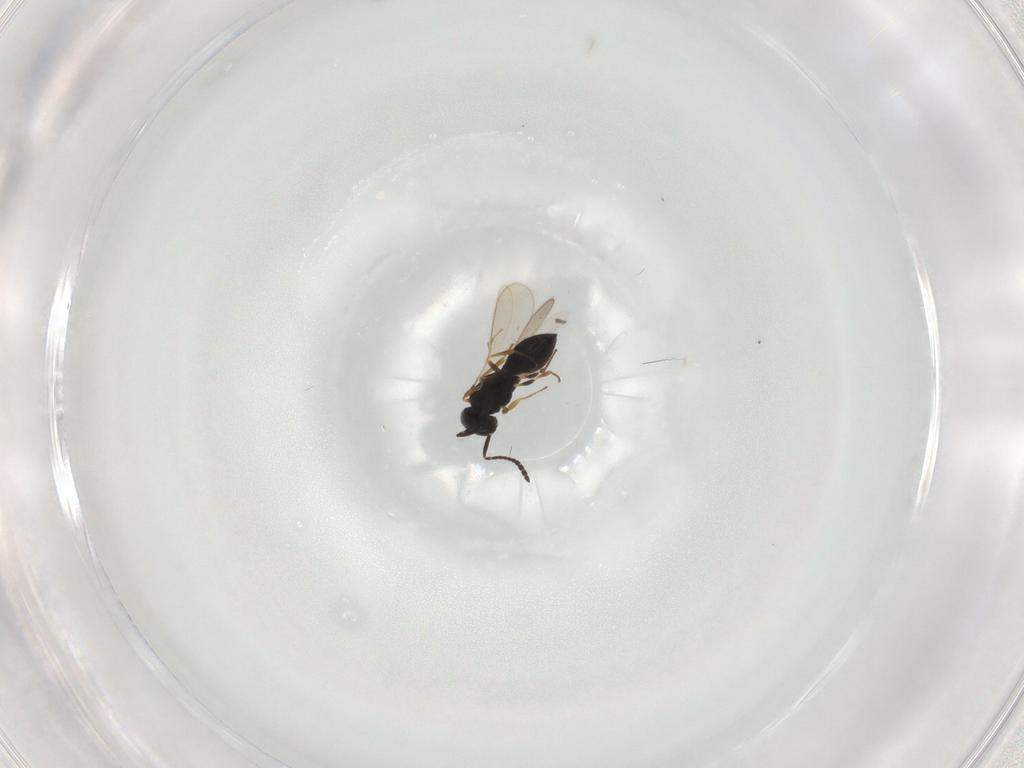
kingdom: Animalia
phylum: Arthropoda
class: Insecta
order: Hymenoptera
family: Scelionidae
